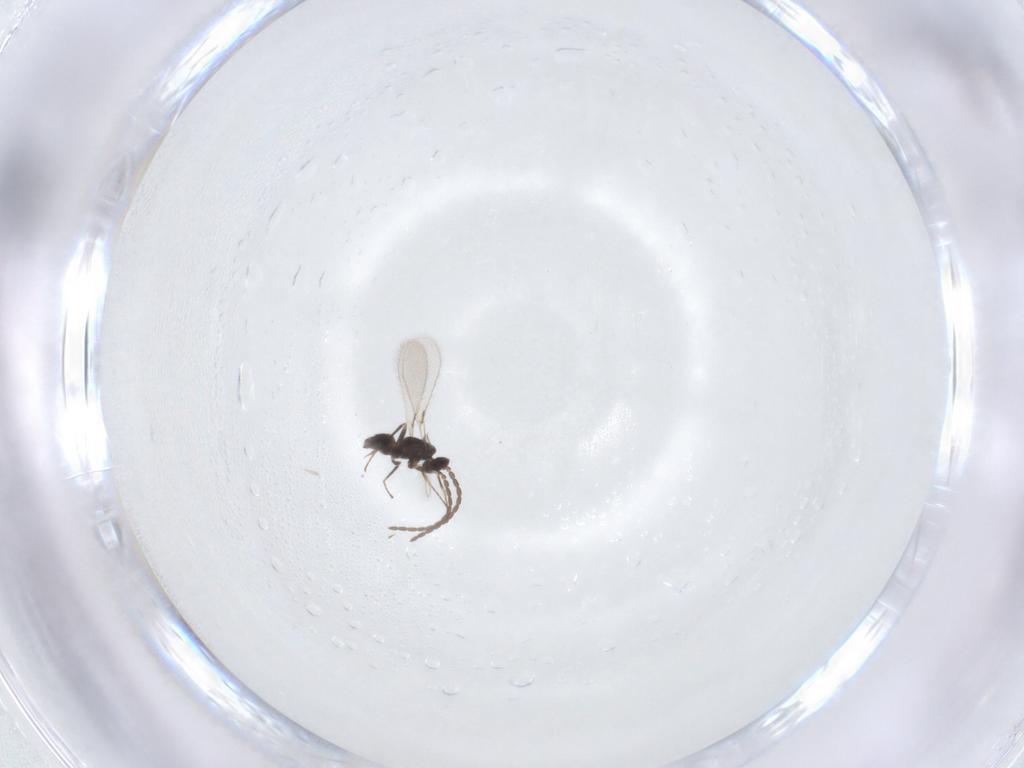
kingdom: Animalia
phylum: Arthropoda
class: Insecta
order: Hymenoptera
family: Mymaridae
